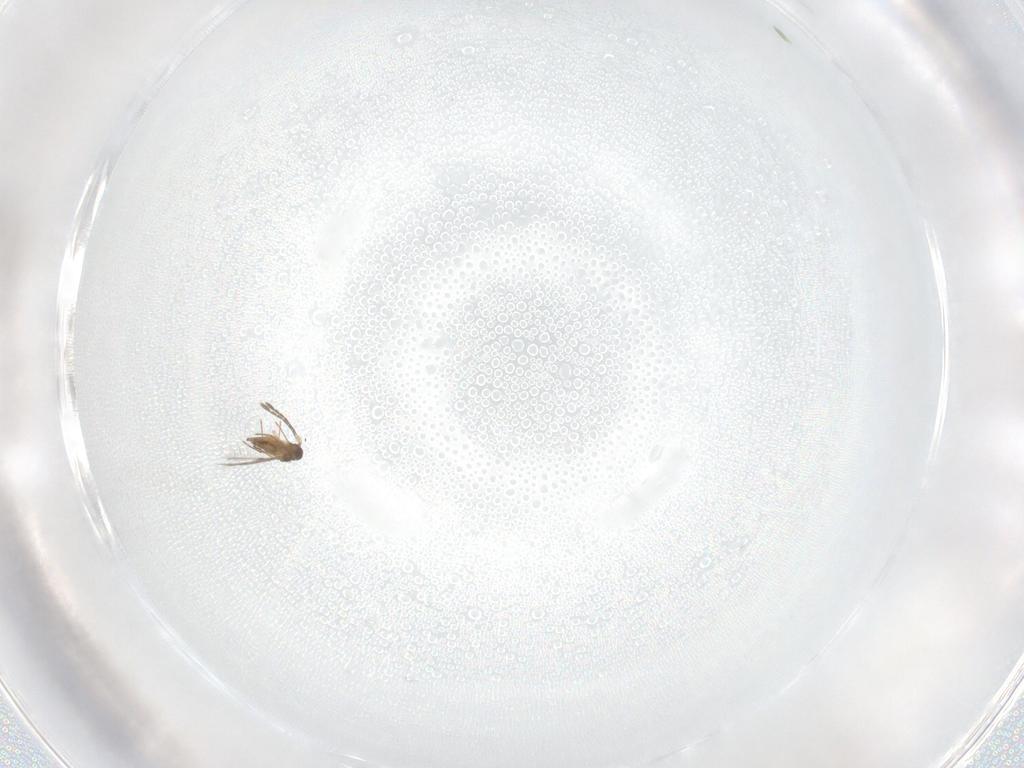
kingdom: Animalia
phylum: Arthropoda
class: Insecta
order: Hymenoptera
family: Mymaridae
